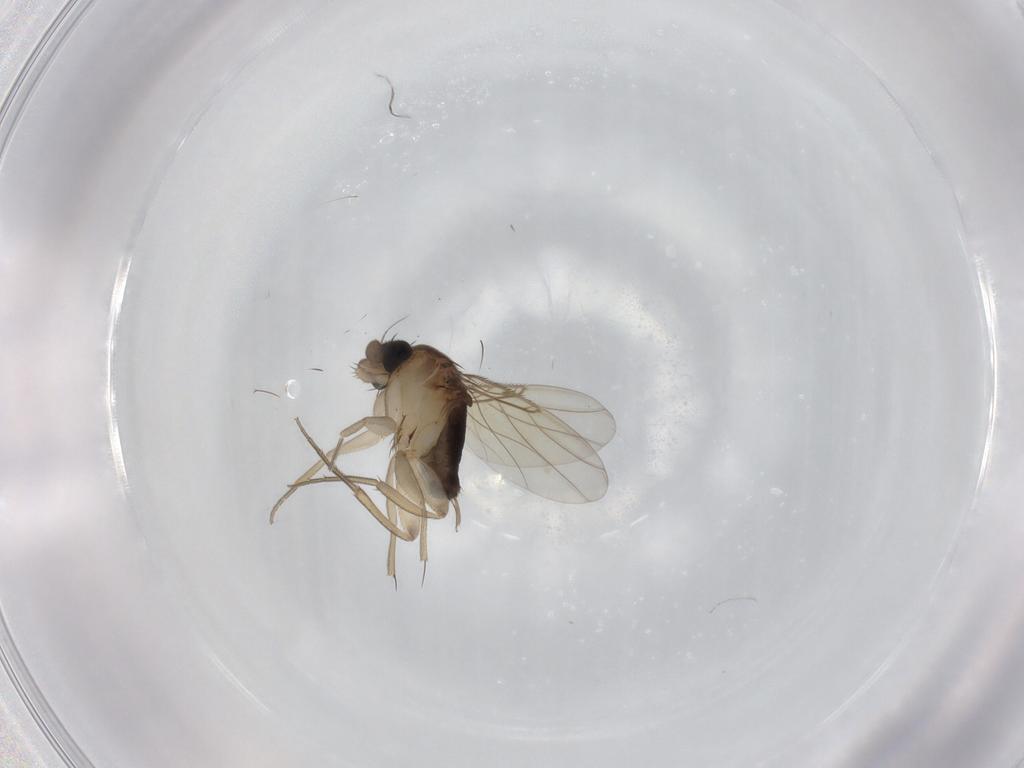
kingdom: Animalia
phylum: Arthropoda
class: Insecta
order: Diptera
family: Phoridae
